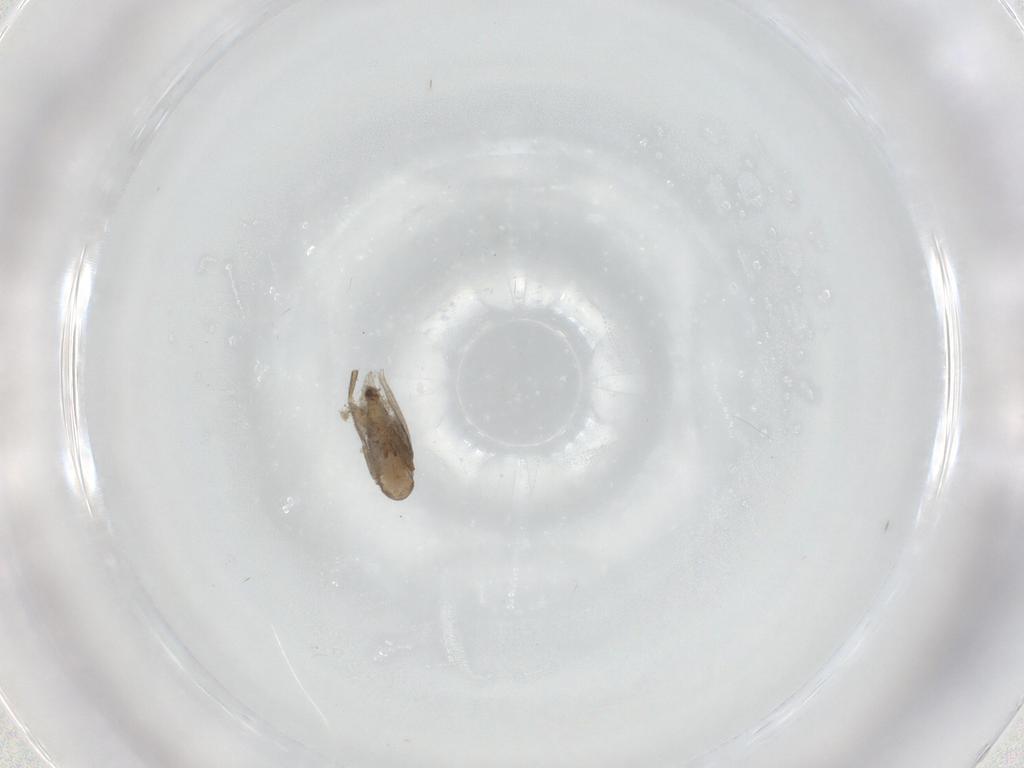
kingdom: Animalia
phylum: Arthropoda
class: Insecta
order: Diptera
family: Phoridae
